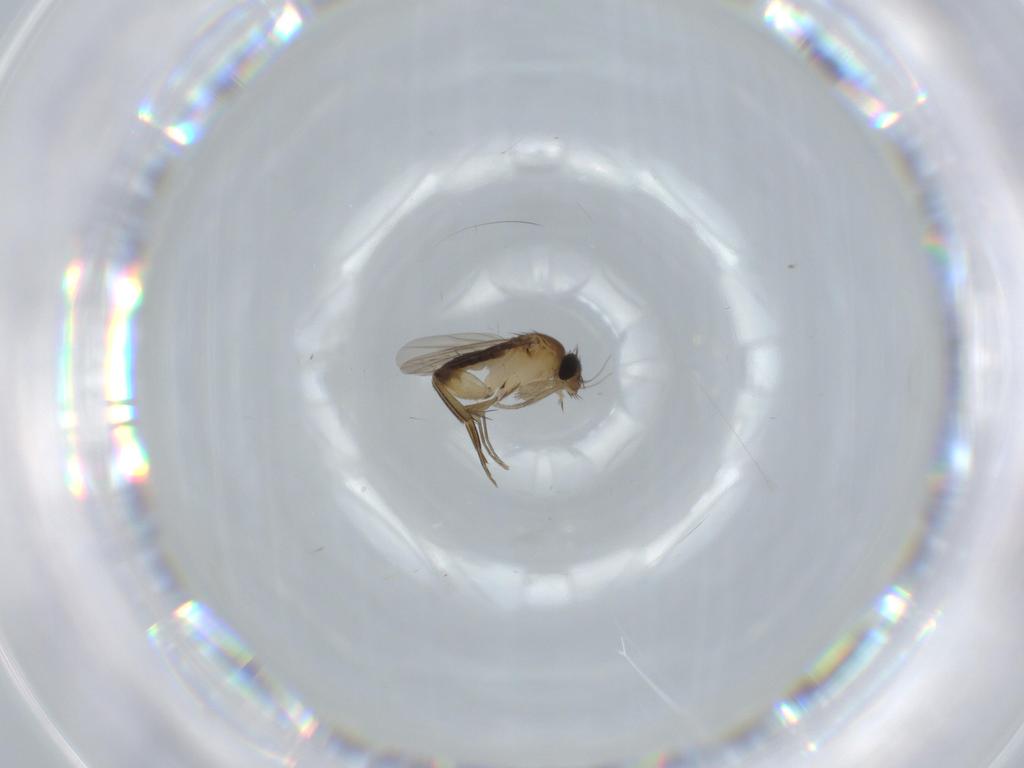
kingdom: Animalia
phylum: Arthropoda
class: Insecta
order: Diptera
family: Phoridae
